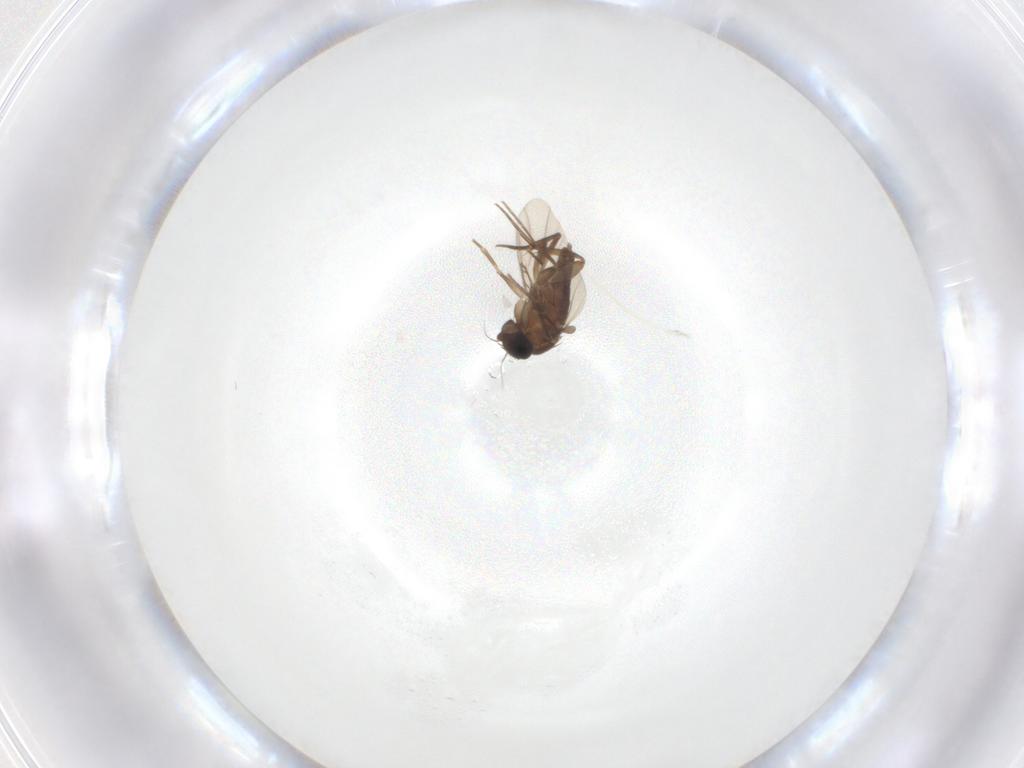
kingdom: Animalia
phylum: Arthropoda
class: Insecta
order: Diptera
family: Phoridae
